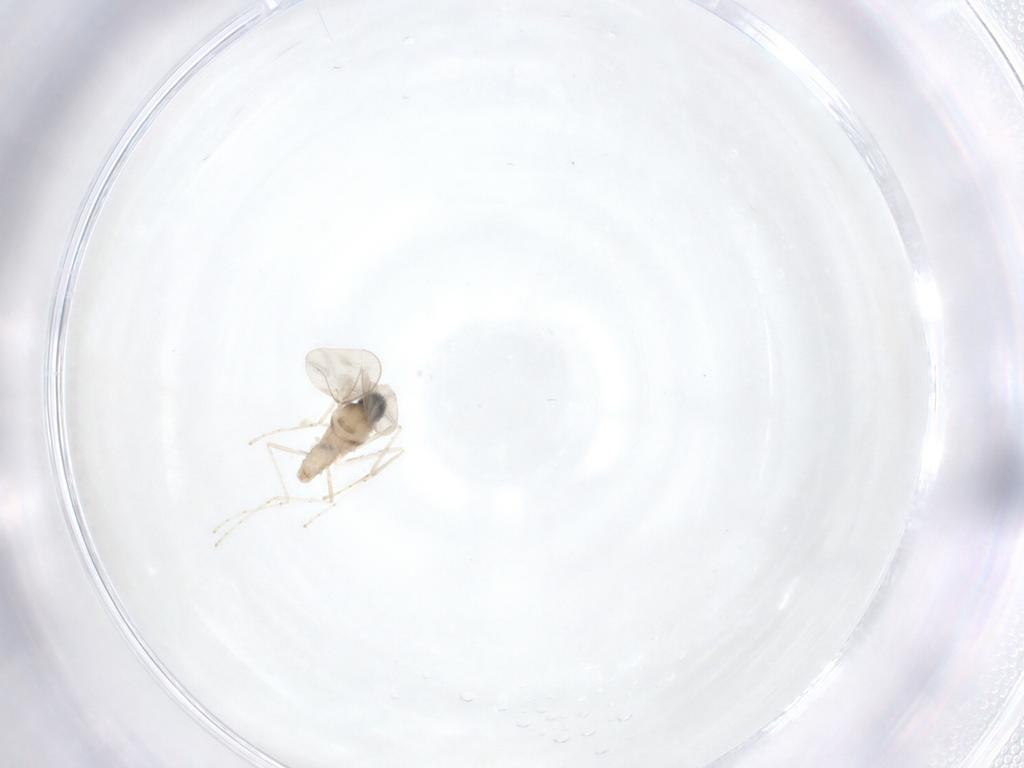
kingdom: Animalia
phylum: Arthropoda
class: Insecta
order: Diptera
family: Cecidomyiidae
